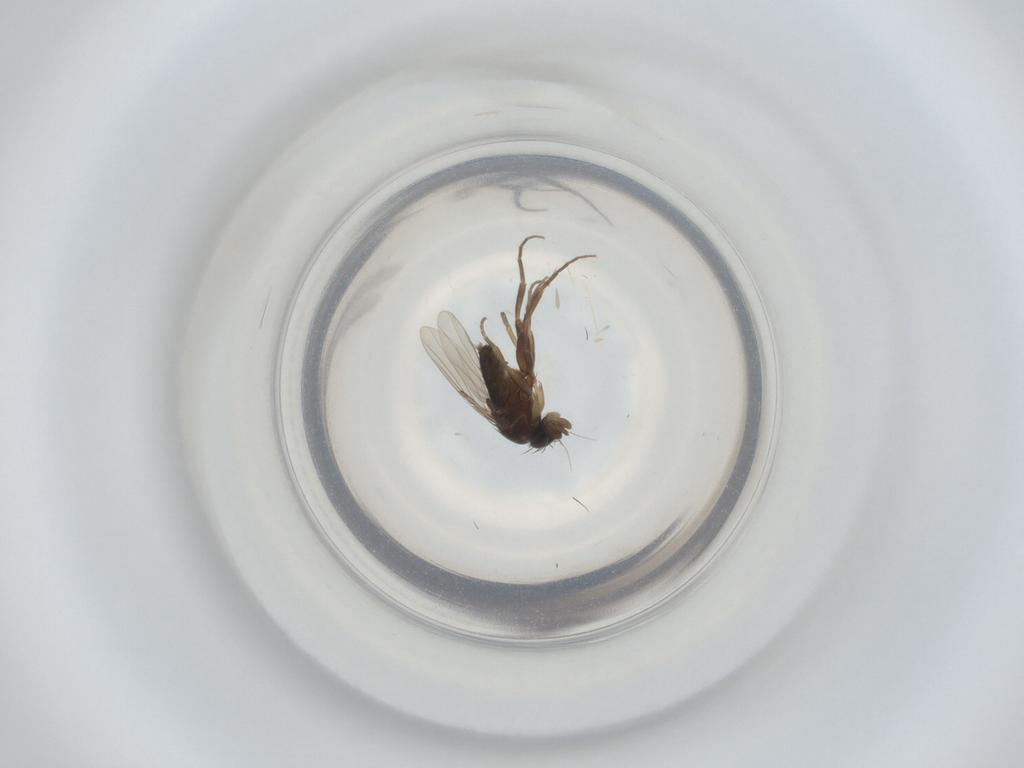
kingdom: Animalia
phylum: Arthropoda
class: Insecta
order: Diptera
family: Phoridae
